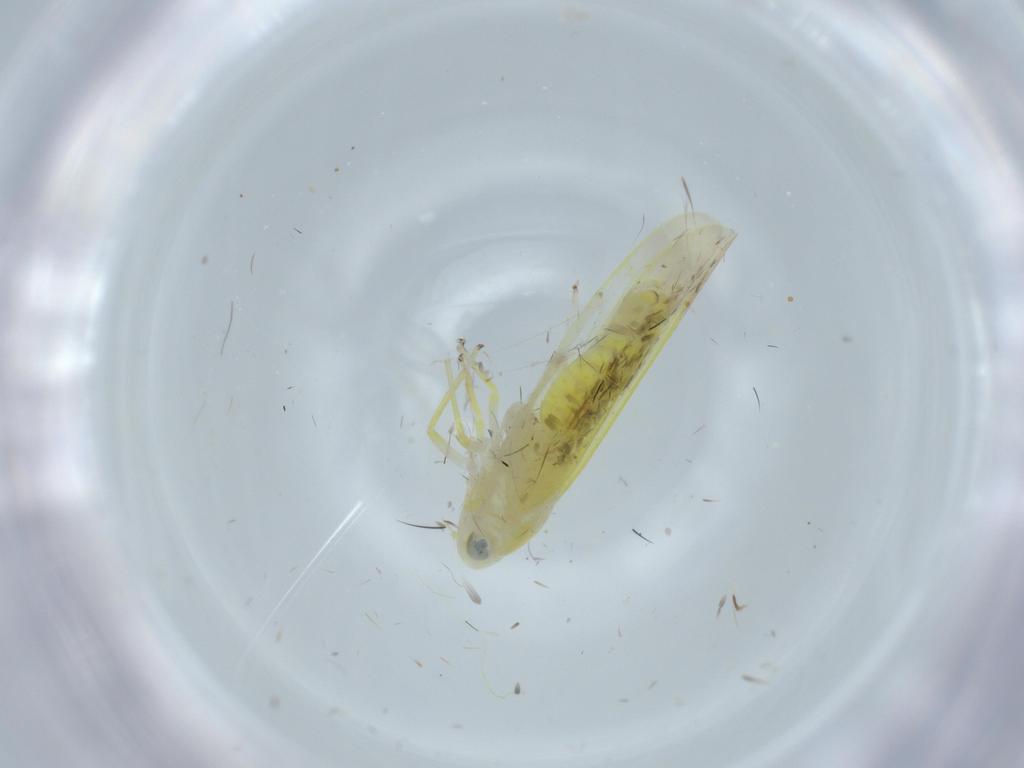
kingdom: Animalia
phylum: Arthropoda
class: Insecta
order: Hemiptera
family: Cicadellidae
